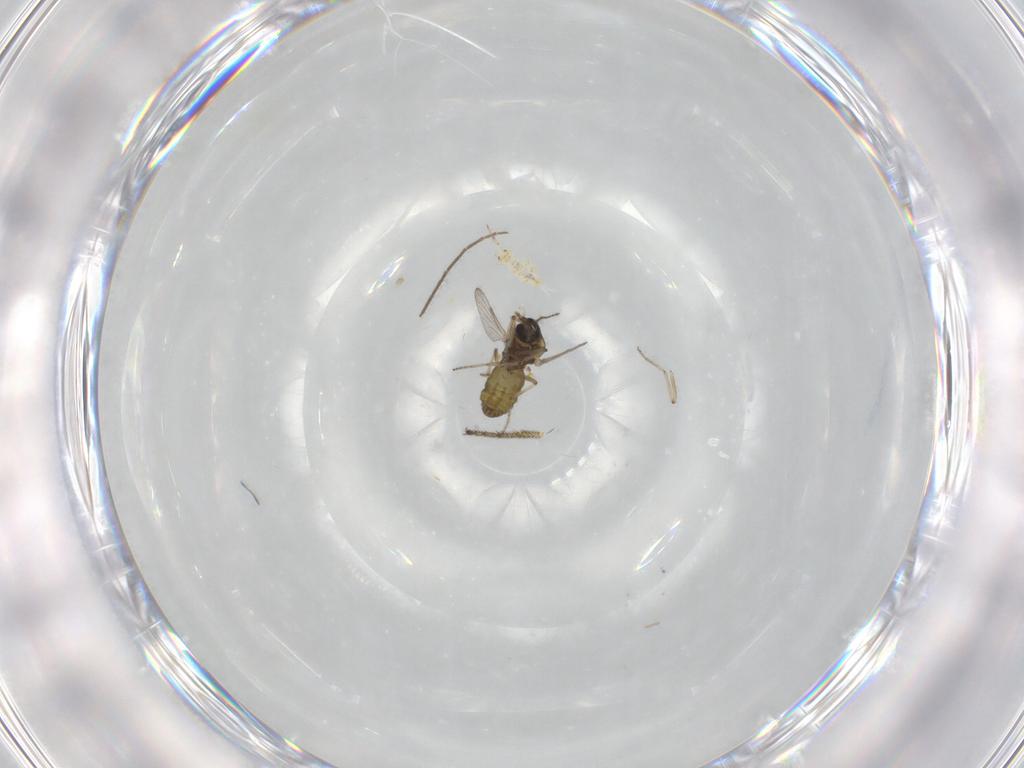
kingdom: Animalia
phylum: Arthropoda
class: Insecta
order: Diptera
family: Ceratopogonidae
